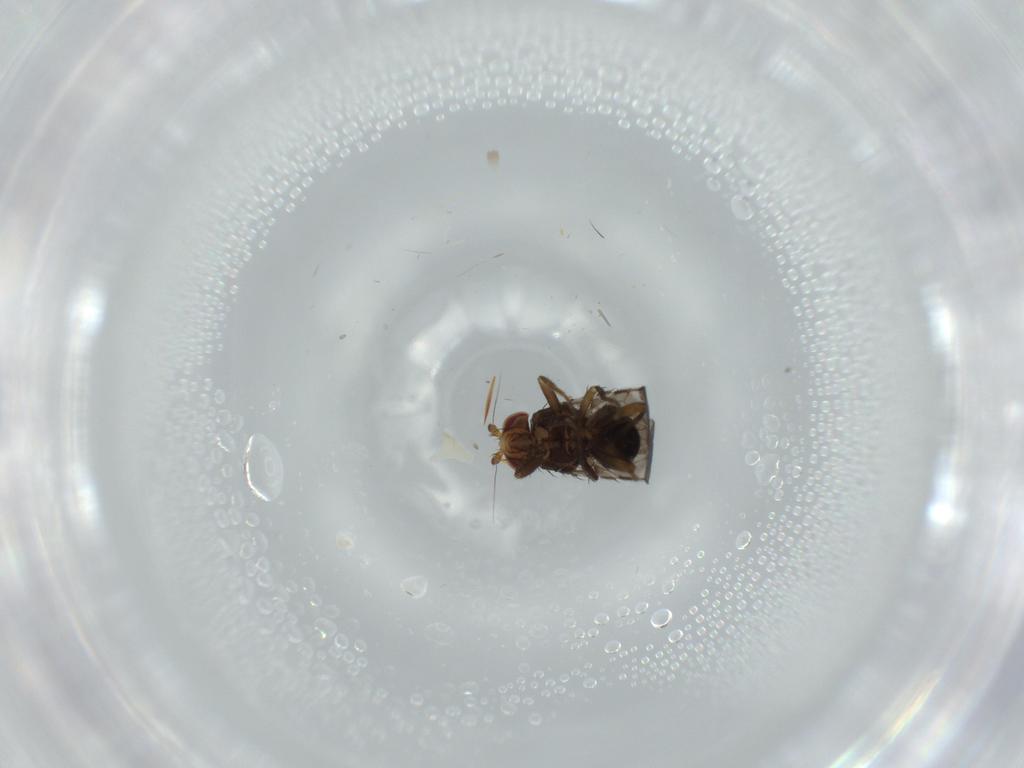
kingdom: Animalia
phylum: Arthropoda
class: Insecta
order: Diptera
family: Tabanidae
